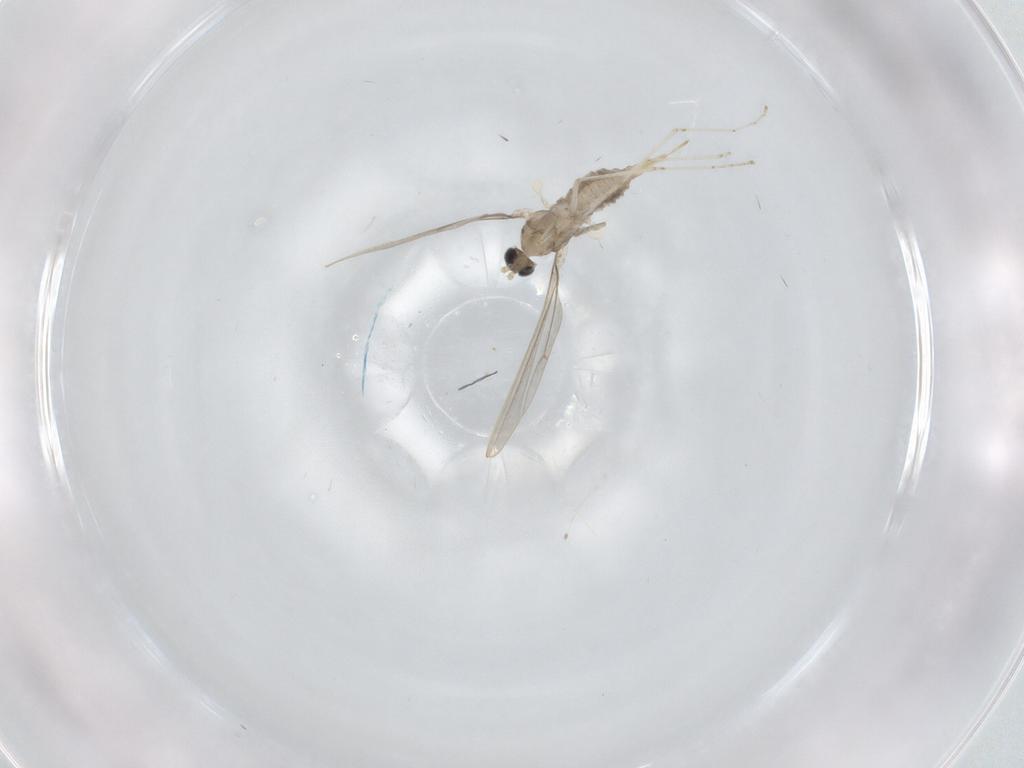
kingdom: Animalia
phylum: Arthropoda
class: Insecta
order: Diptera
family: Cecidomyiidae
